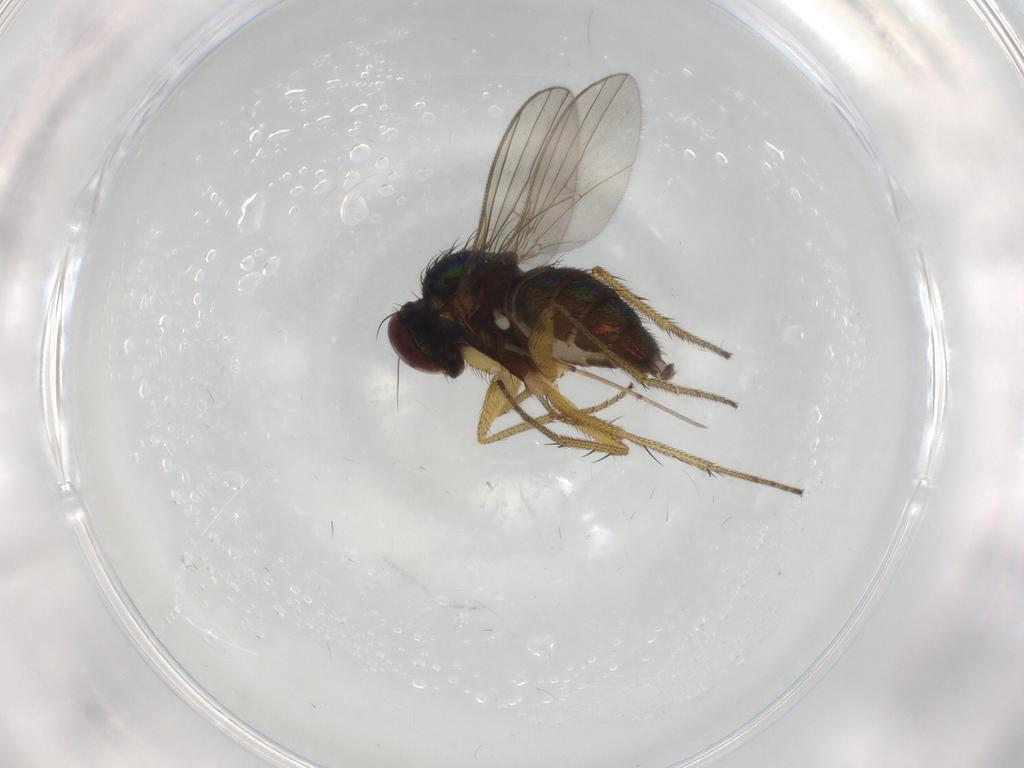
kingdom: Animalia
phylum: Arthropoda
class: Insecta
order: Diptera
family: Dolichopodidae
